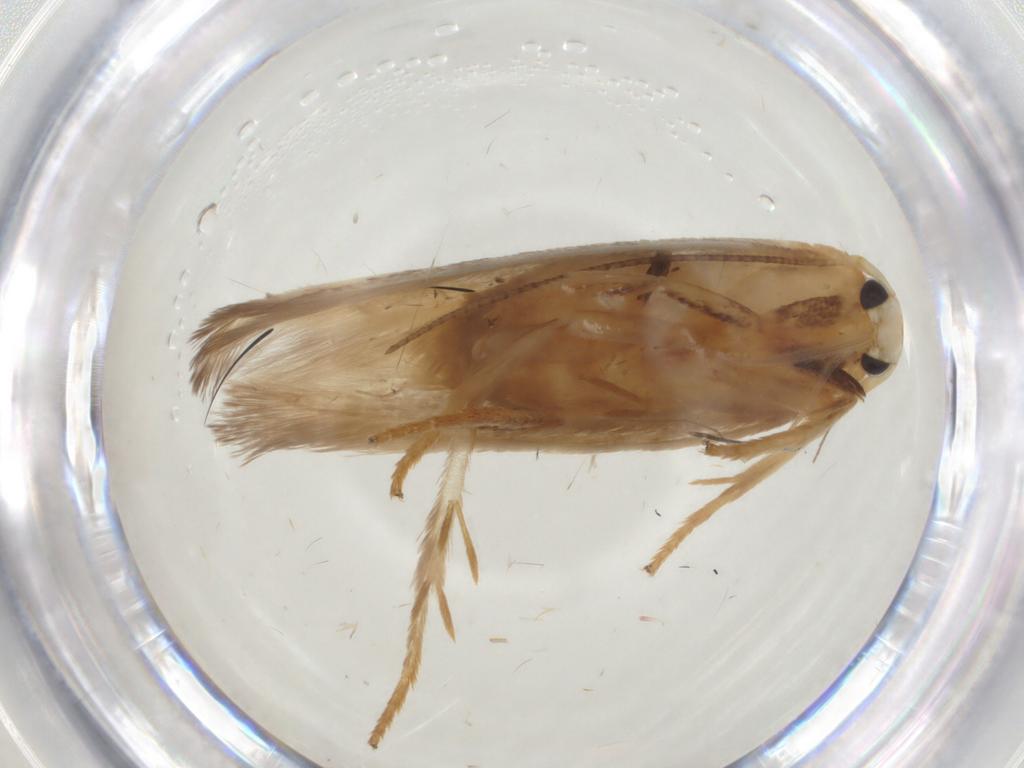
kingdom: Animalia
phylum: Arthropoda
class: Insecta
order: Lepidoptera
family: Geometridae
